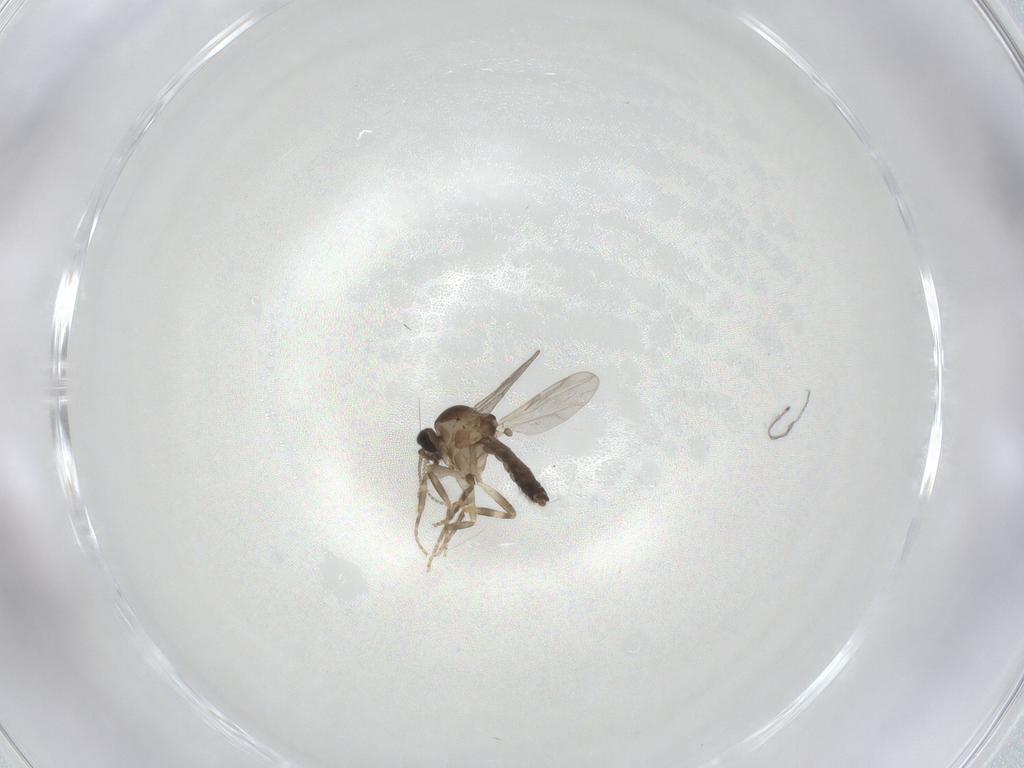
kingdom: Animalia
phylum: Arthropoda
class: Insecta
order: Diptera
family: Ceratopogonidae
